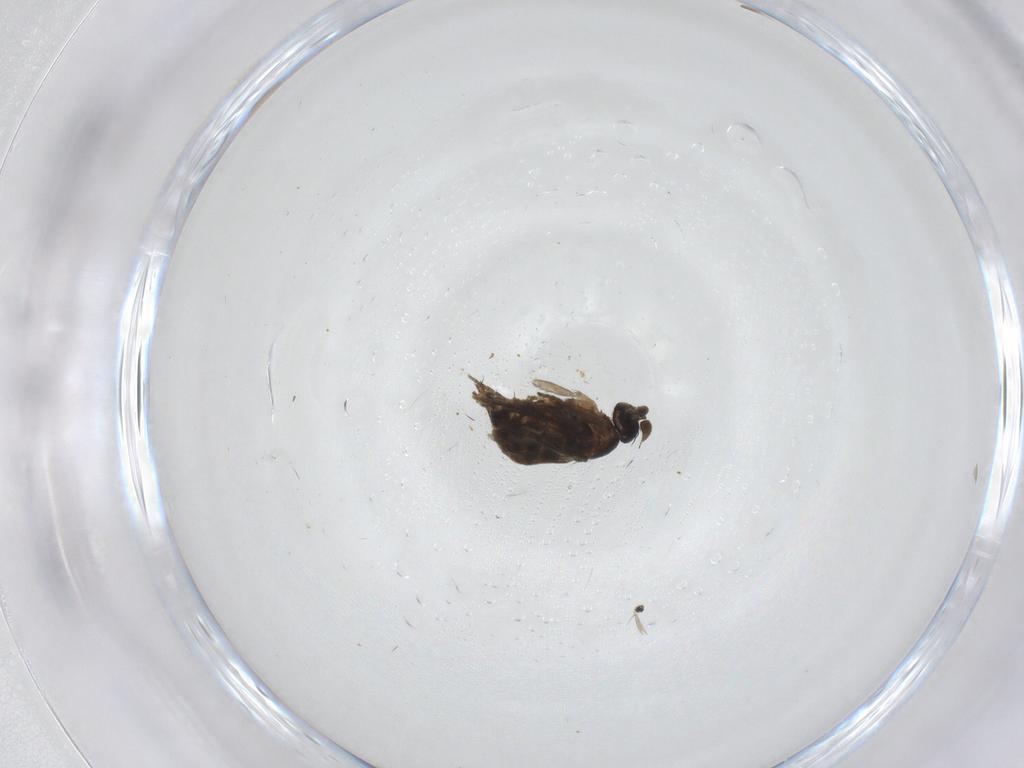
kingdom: Animalia
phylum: Arthropoda
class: Insecta
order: Diptera
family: Phoridae
